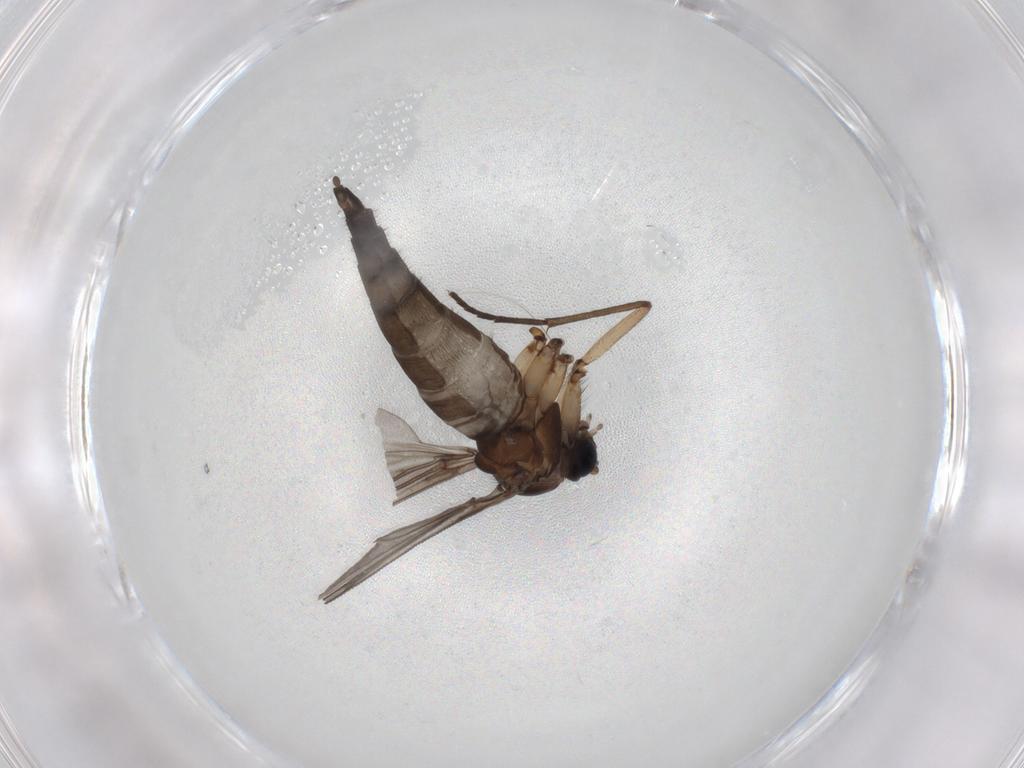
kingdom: Animalia
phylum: Arthropoda
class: Insecta
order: Diptera
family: Sciaridae
